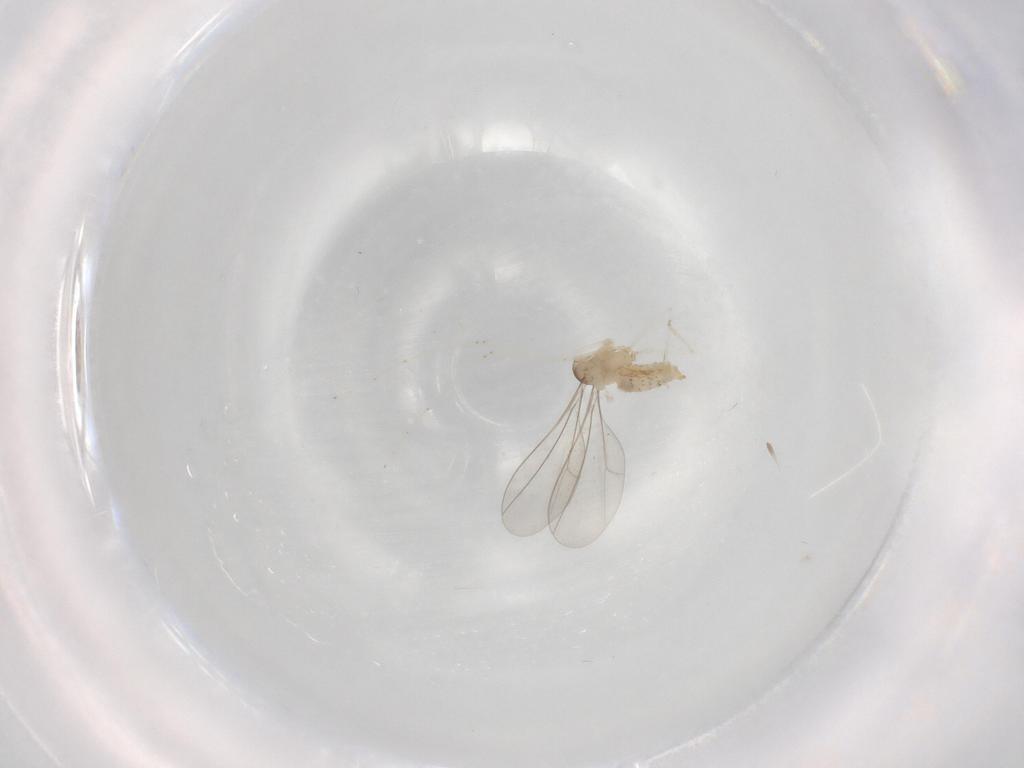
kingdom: Animalia
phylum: Arthropoda
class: Insecta
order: Diptera
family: Cecidomyiidae
